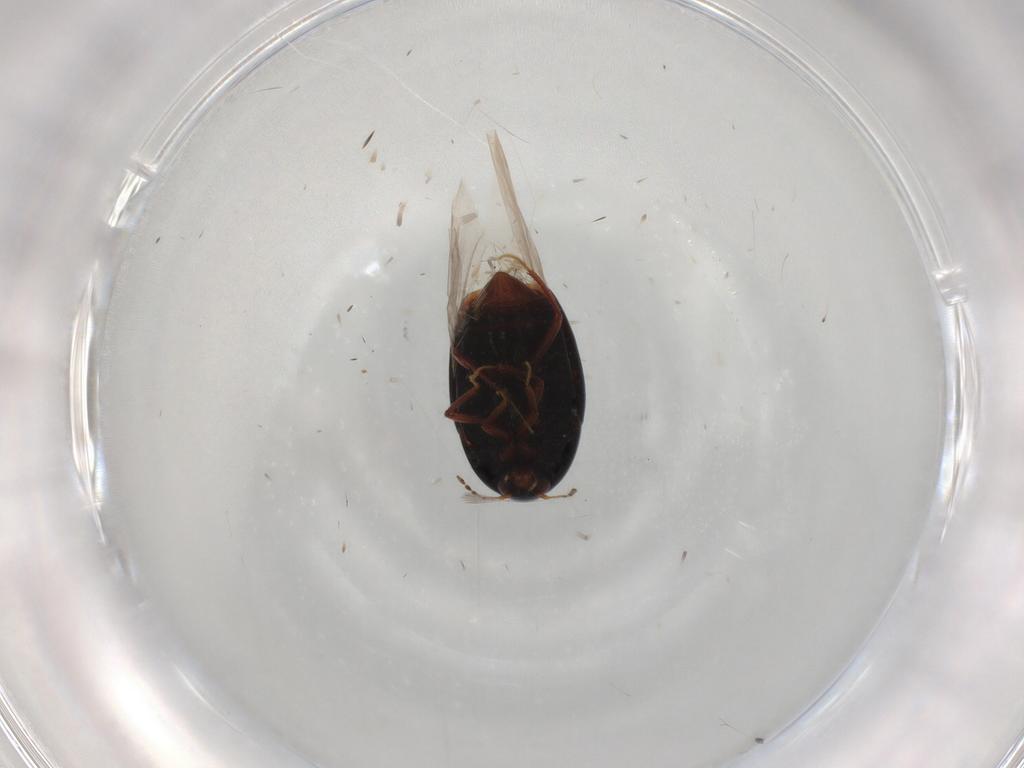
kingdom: Animalia
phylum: Arthropoda
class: Insecta
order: Coleoptera
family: Staphylinidae
